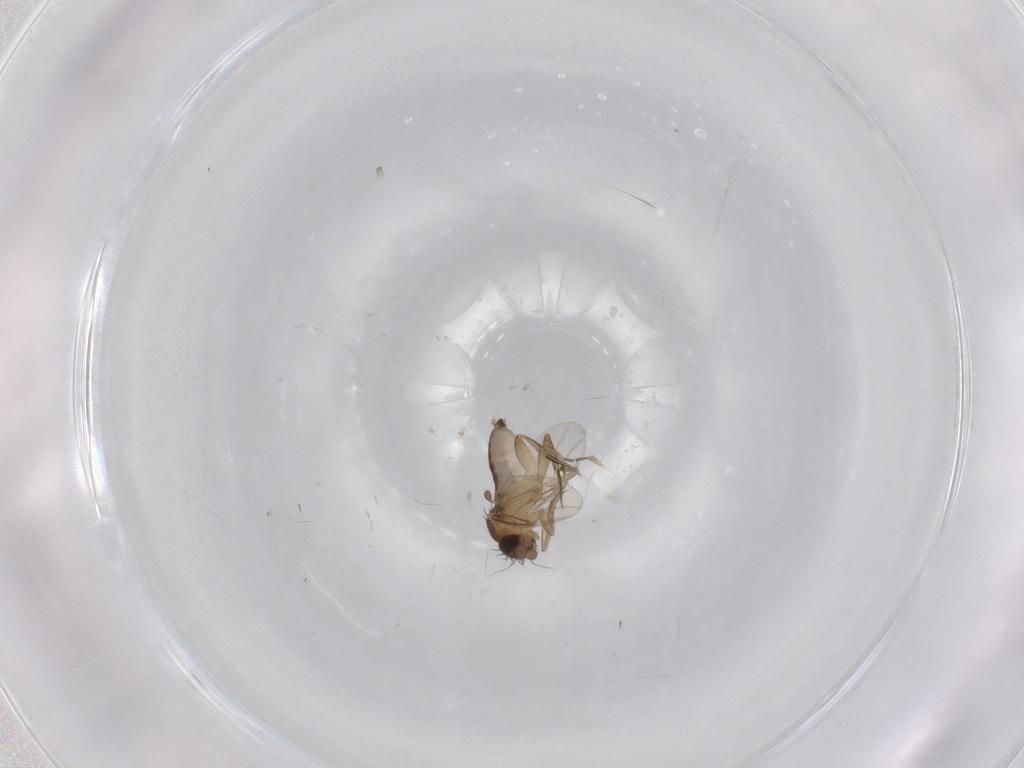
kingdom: Animalia
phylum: Arthropoda
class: Insecta
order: Diptera
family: Phoridae
